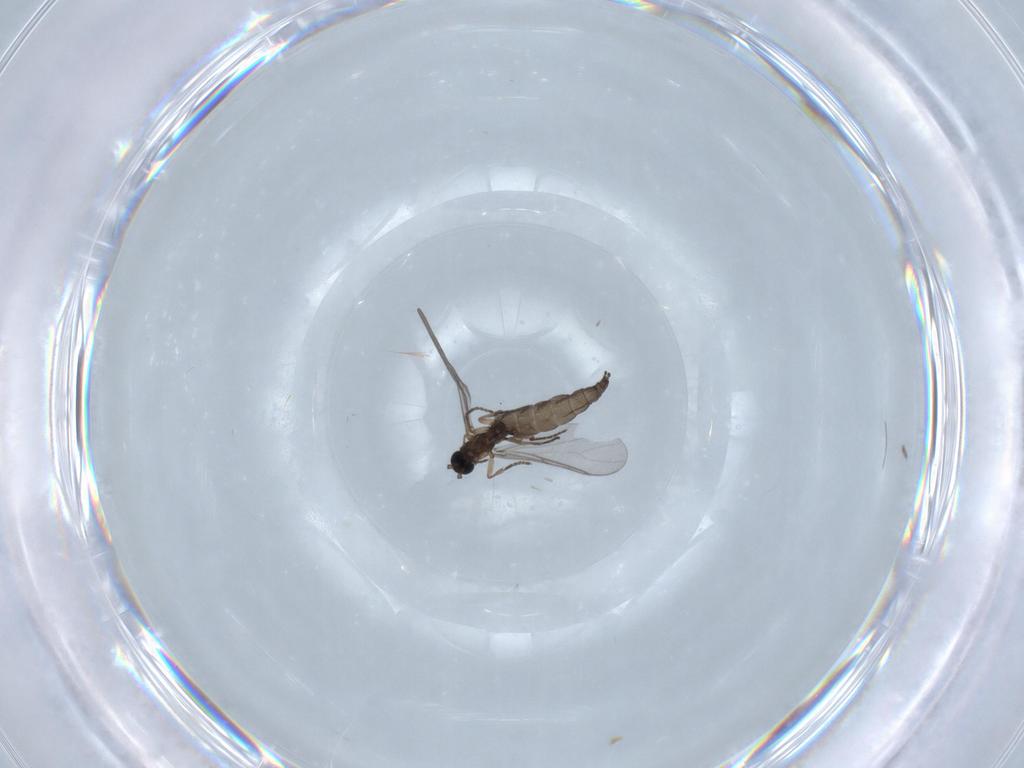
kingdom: Animalia
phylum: Arthropoda
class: Insecta
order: Diptera
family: Sciaridae
